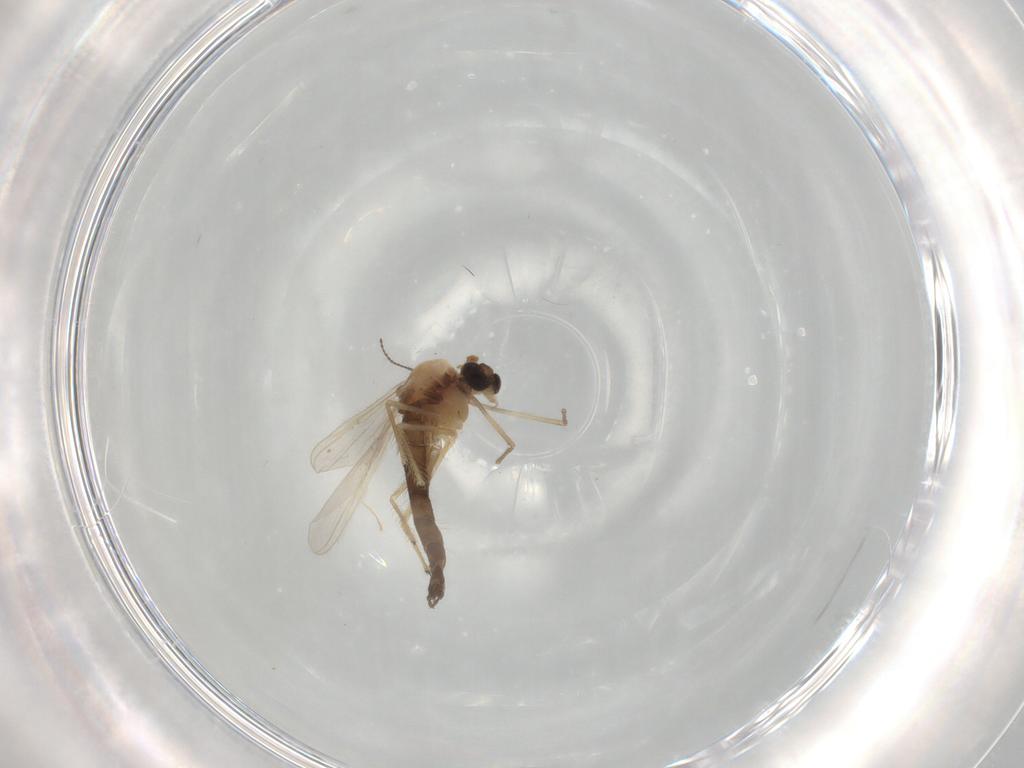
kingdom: Animalia
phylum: Arthropoda
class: Insecta
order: Diptera
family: Chironomidae
